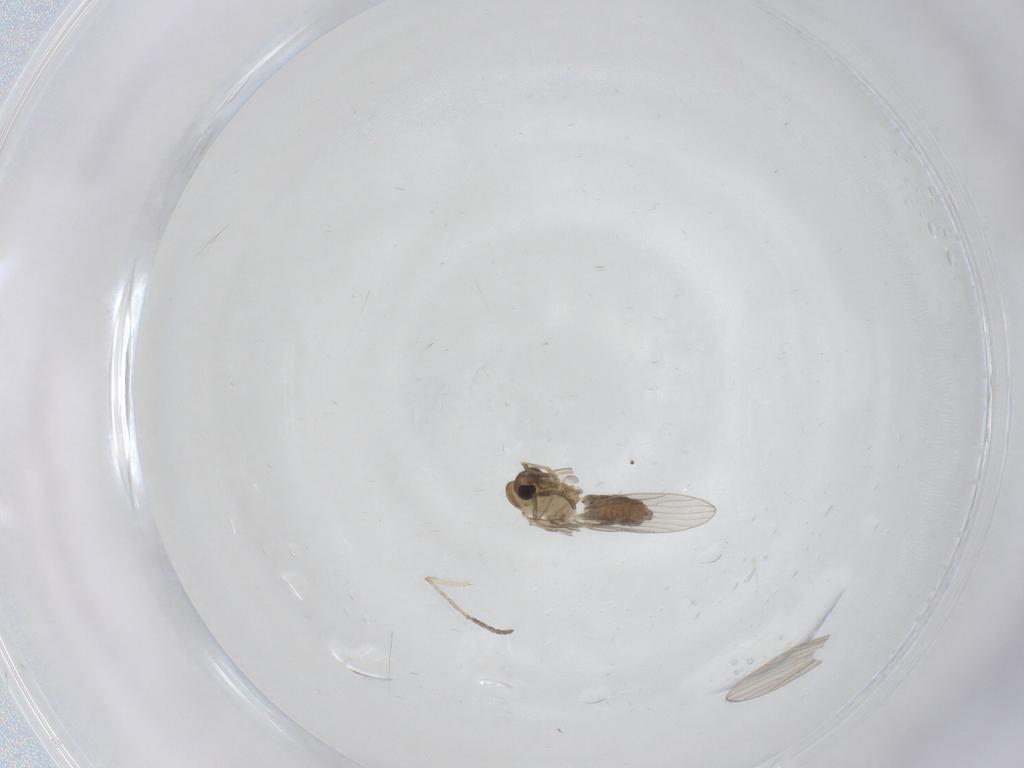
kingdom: Animalia
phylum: Arthropoda
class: Insecta
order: Diptera
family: Psychodidae
